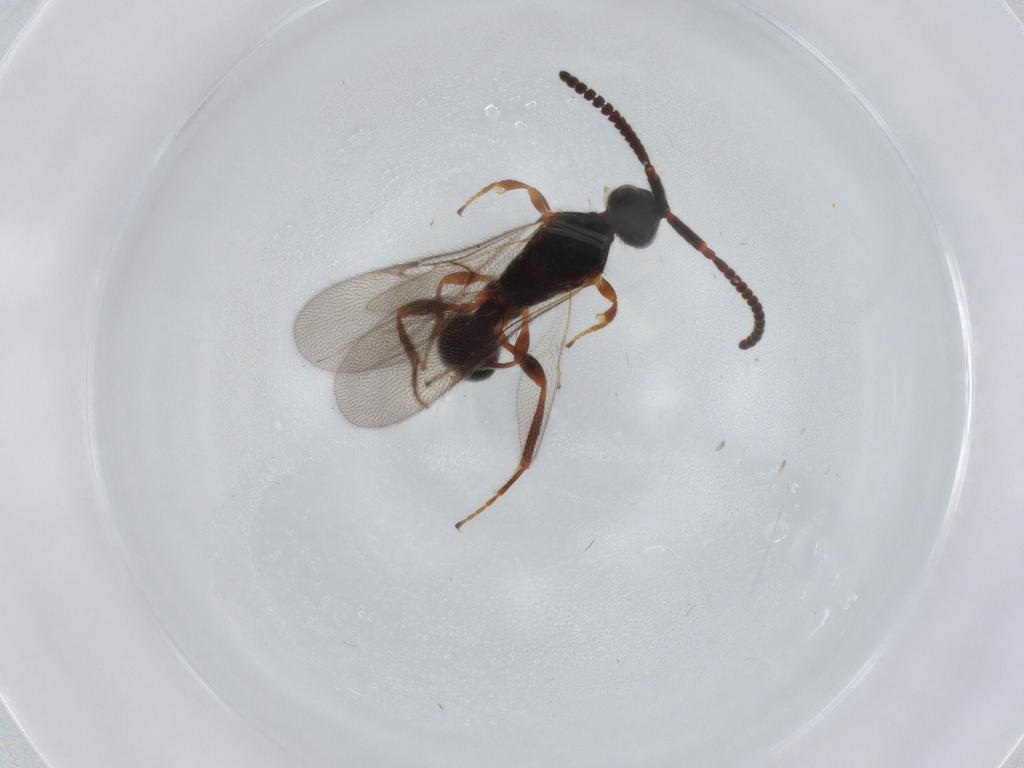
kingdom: Animalia
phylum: Arthropoda
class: Insecta
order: Hymenoptera
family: Diapriidae
